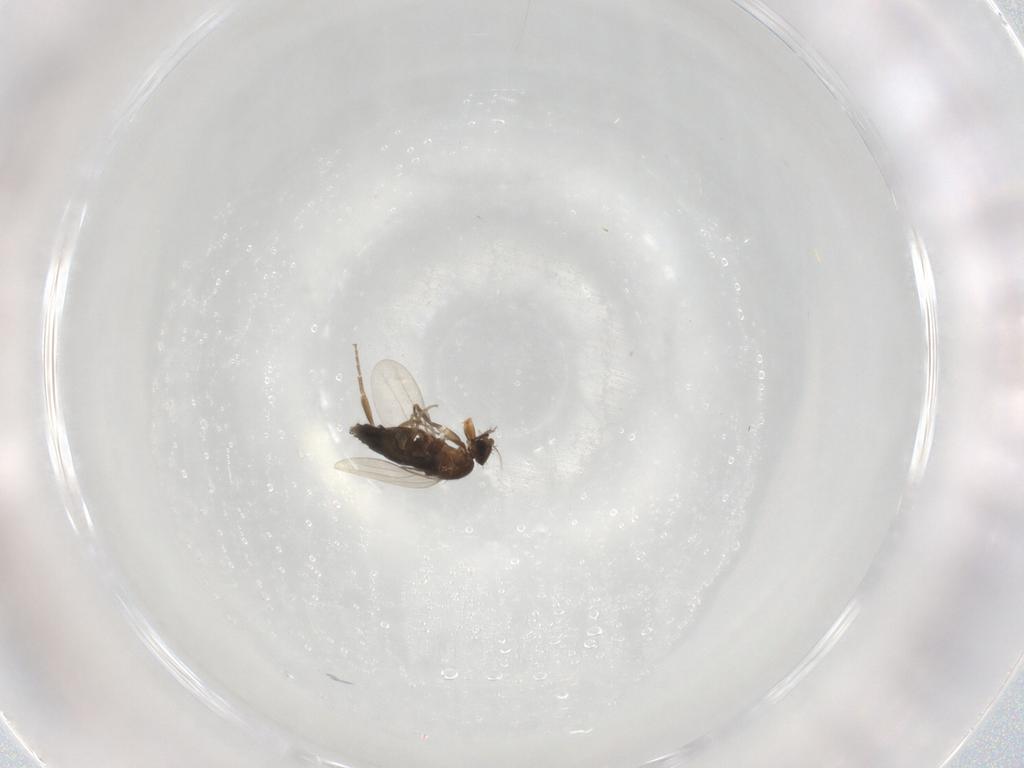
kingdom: Animalia
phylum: Arthropoda
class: Insecta
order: Diptera
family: Phoridae
